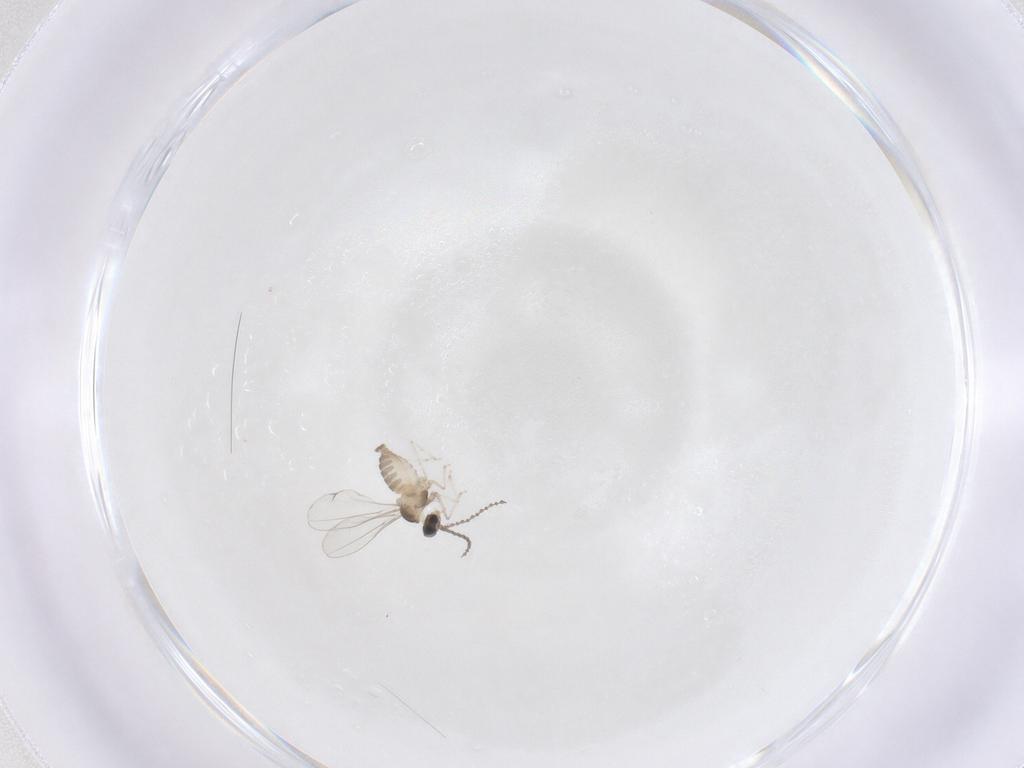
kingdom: Animalia
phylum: Arthropoda
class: Insecta
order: Diptera
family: Cecidomyiidae
